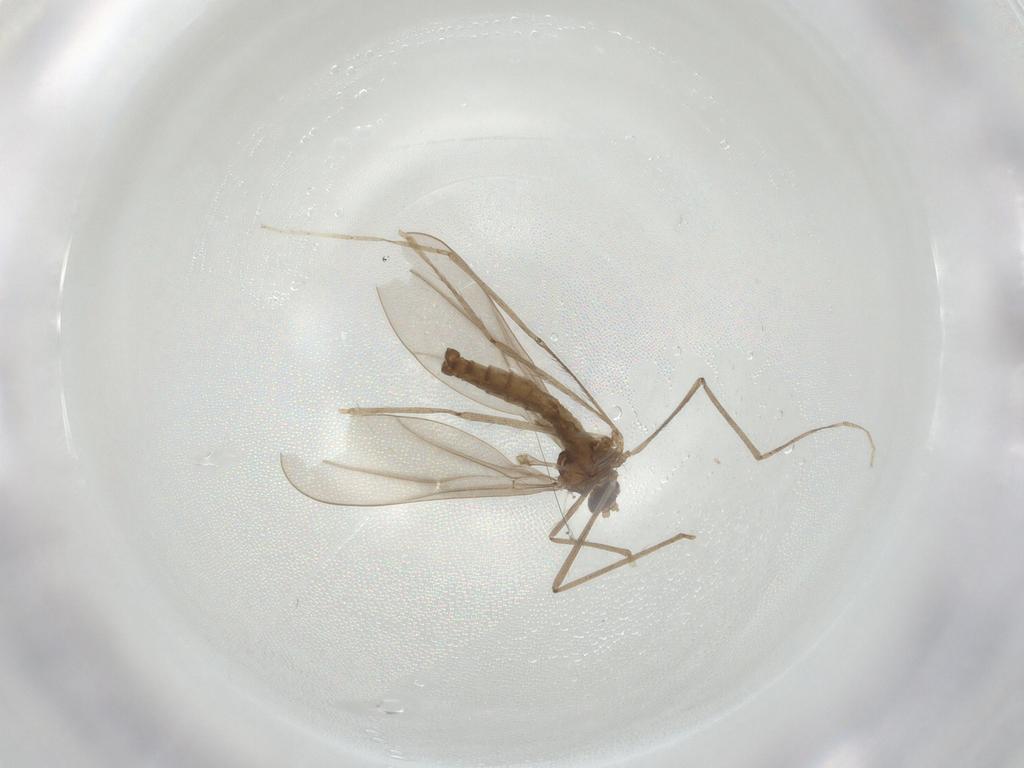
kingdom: Animalia
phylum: Arthropoda
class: Insecta
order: Diptera
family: Cecidomyiidae
